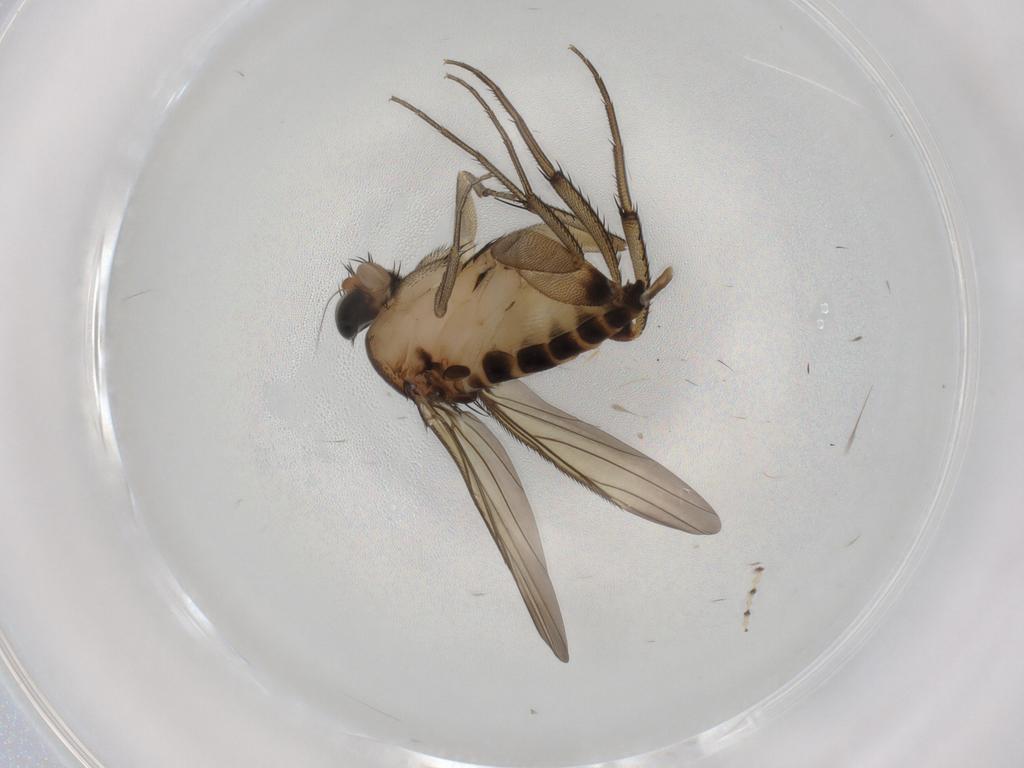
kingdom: Animalia
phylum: Arthropoda
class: Insecta
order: Diptera
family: Phoridae
